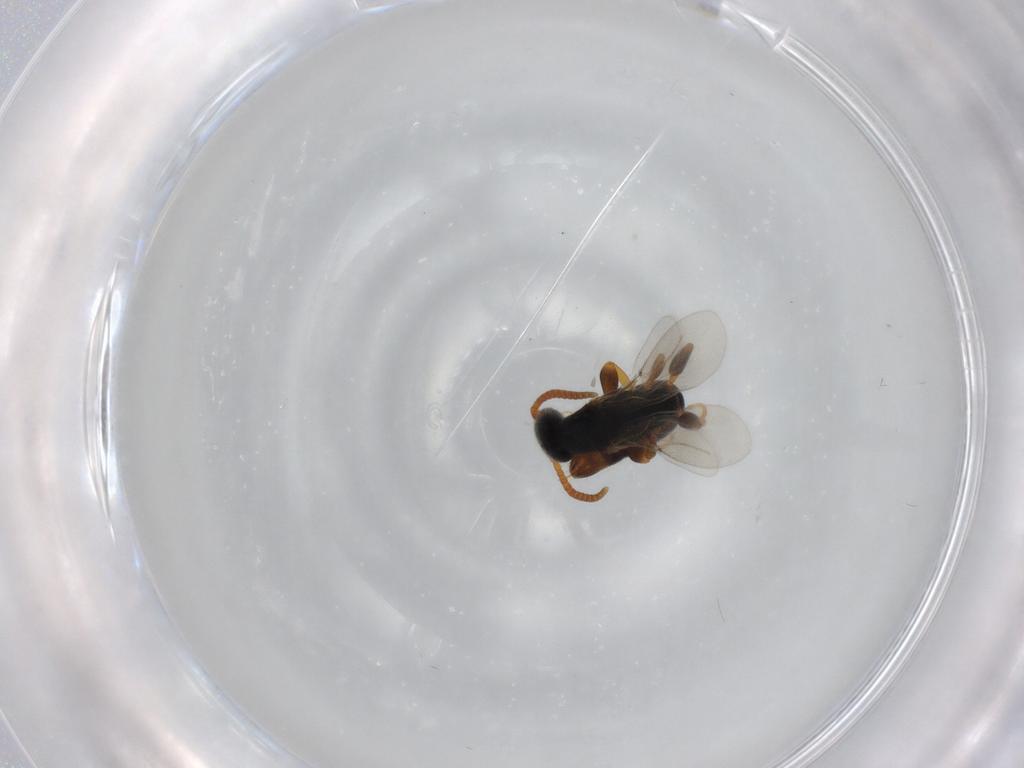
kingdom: Animalia
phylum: Arthropoda
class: Insecta
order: Hymenoptera
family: Bethylidae
